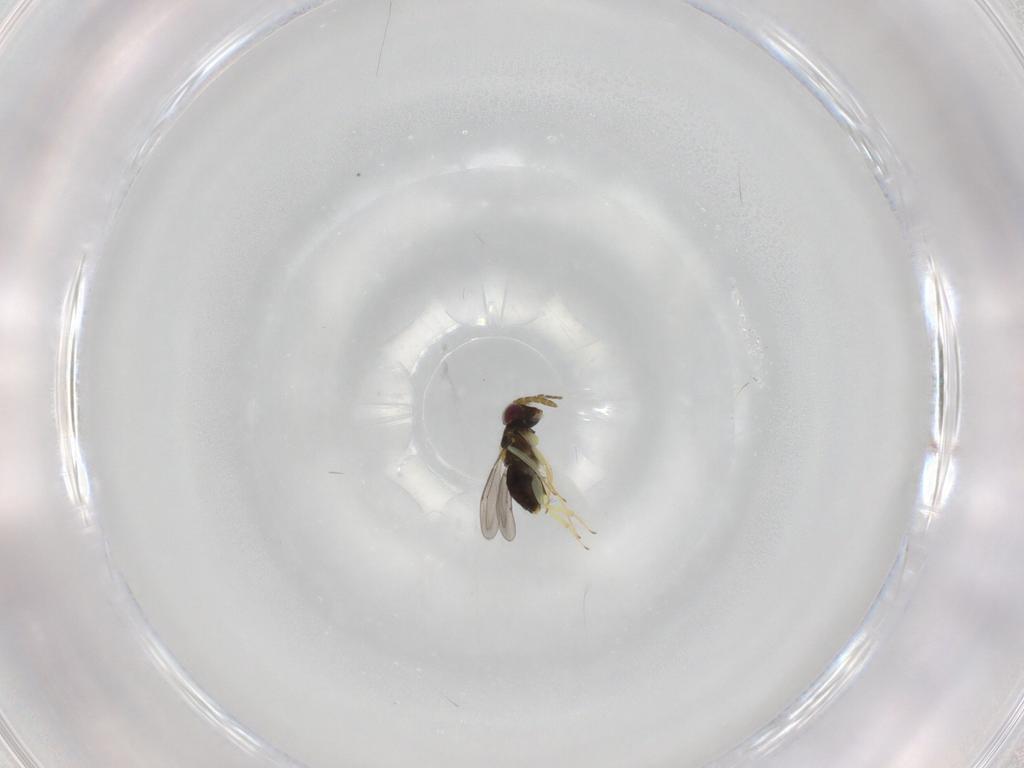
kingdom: Animalia
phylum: Arthropoda
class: Insecta
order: Hymenoptera
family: Aphelinidae
